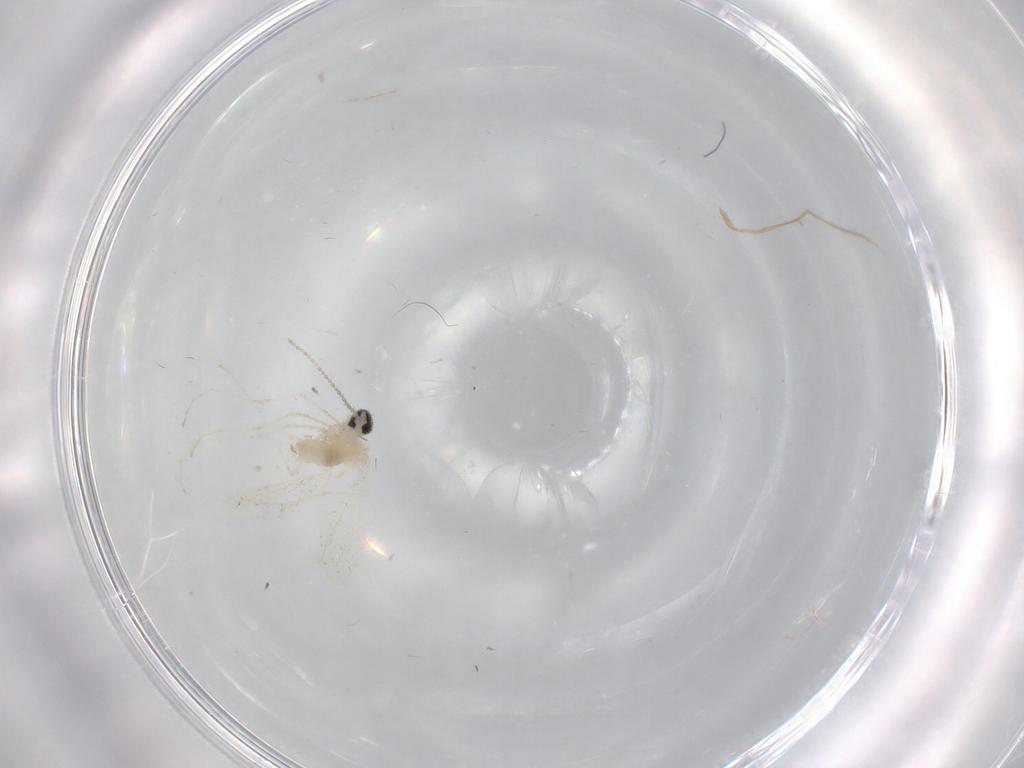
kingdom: Animalia
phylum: Arthropoda
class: Insecta
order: Diptera
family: Cecidomyiidae
